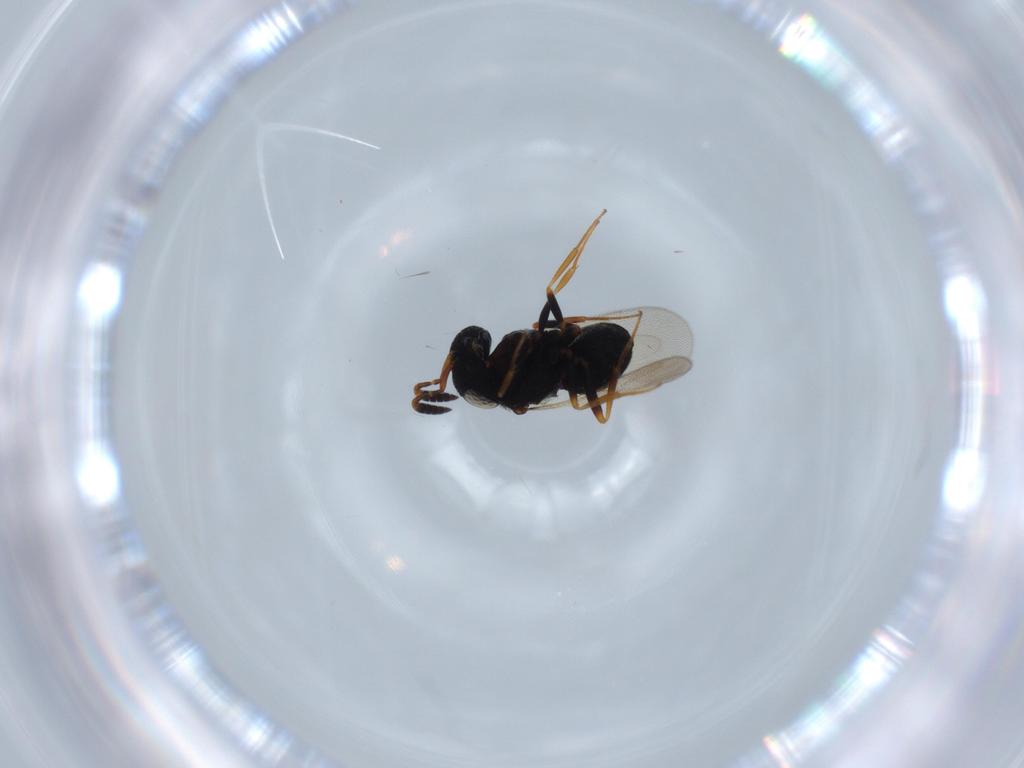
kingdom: Animalia
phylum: Arthropoda
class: Insecta
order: Hymenoptera
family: Scelionidae
